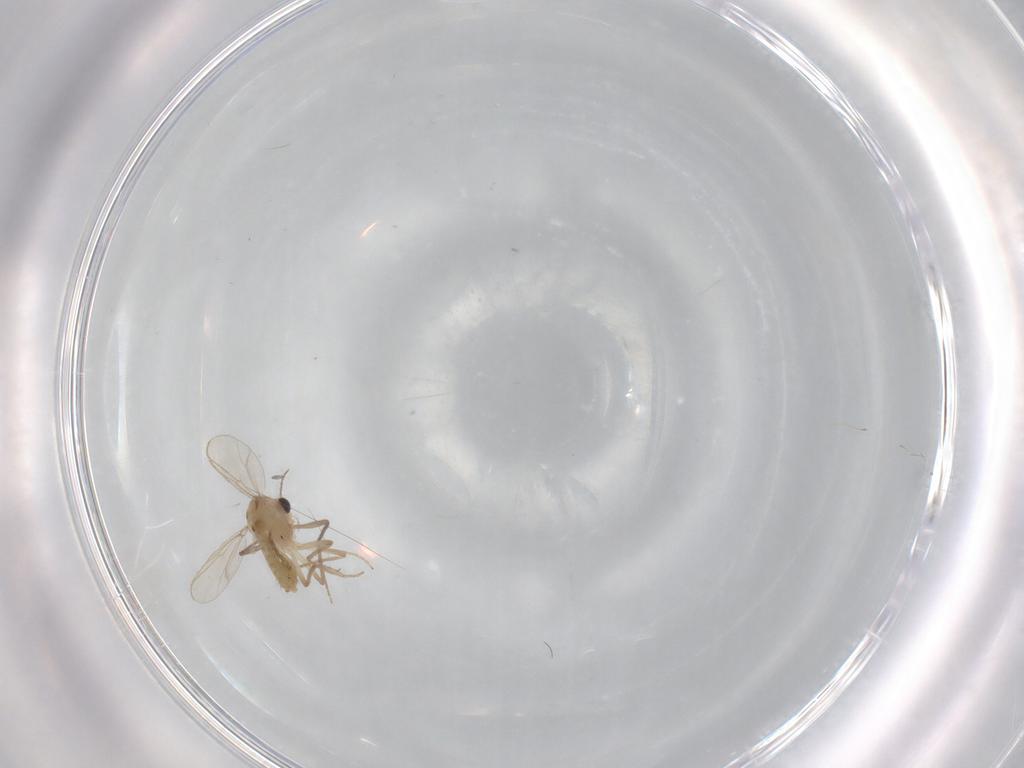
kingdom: Animalia
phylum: Arthropoda
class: Insecta
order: Diptera
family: Chironomidae
